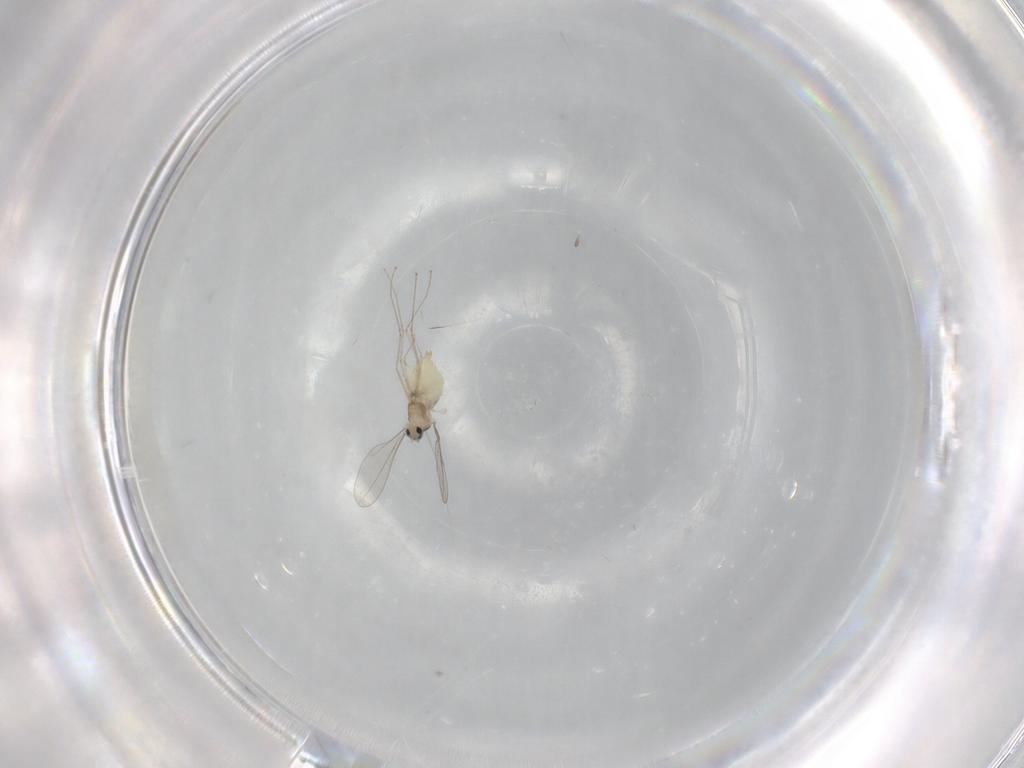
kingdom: Animalia
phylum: Arthropoda
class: Insecta
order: Diptera
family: Cecidomyiidae
